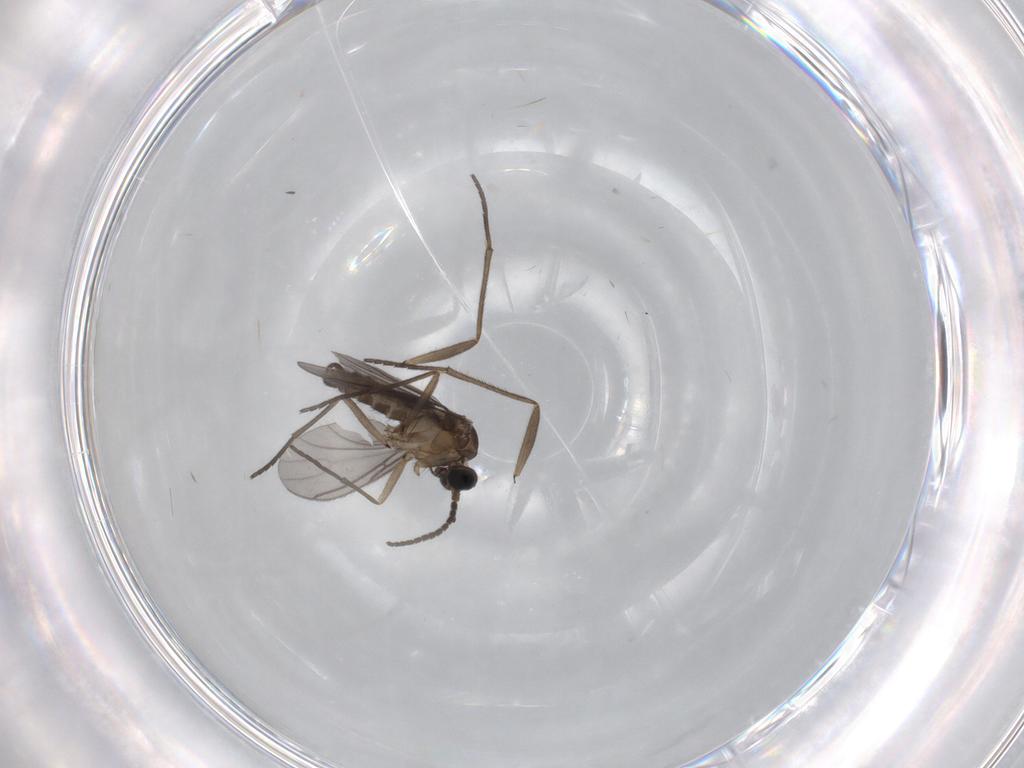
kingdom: Animalia
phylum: Arthropoda
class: Insecta
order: Diptera
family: Sciaridae
